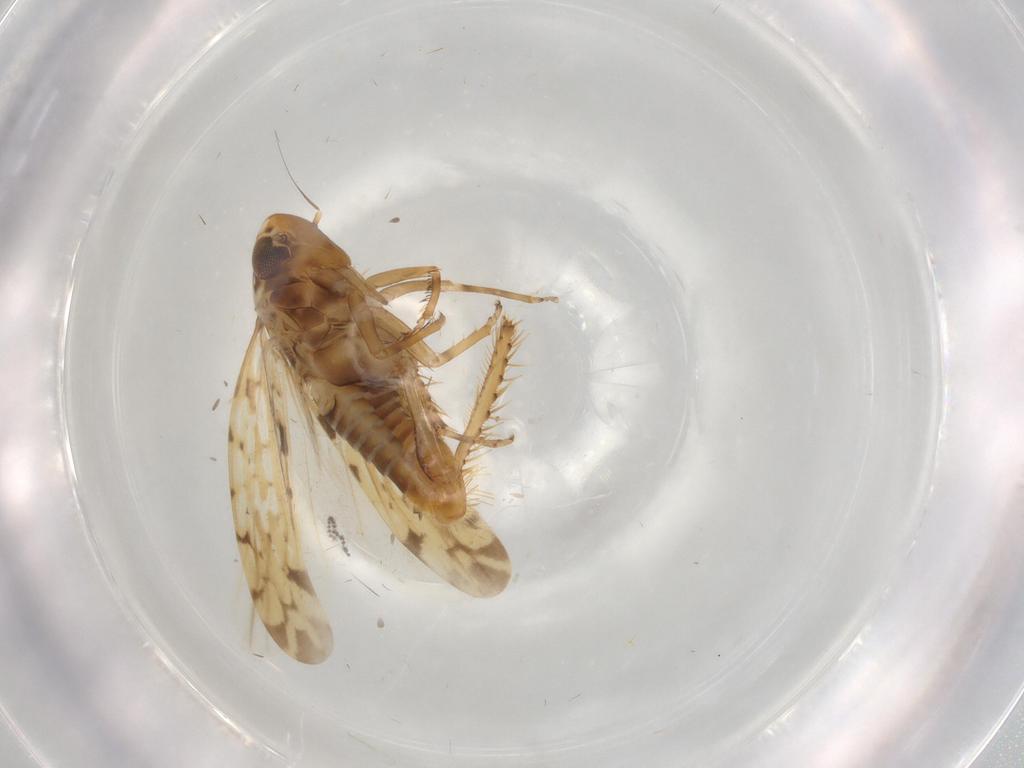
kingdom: Animalia
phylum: Arthropoda
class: Insecta
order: Hemiptera
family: Cicadellidae
